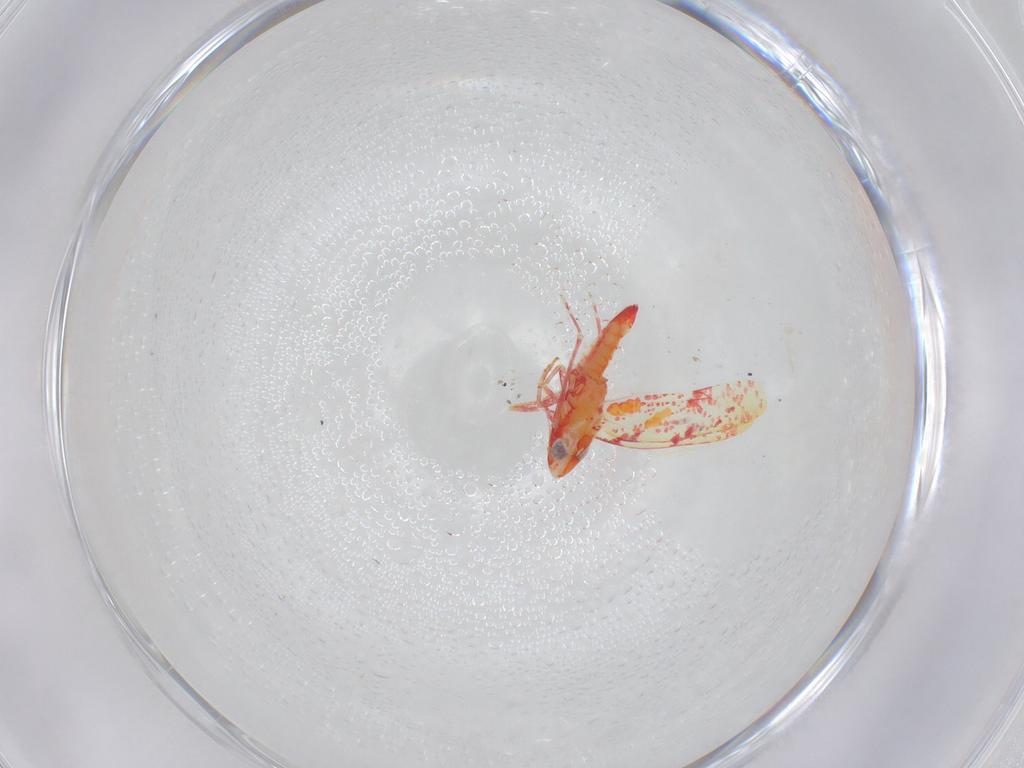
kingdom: Animalia
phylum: Arthropoda
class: Insecta
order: Hemiptera
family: Cicadellidae
